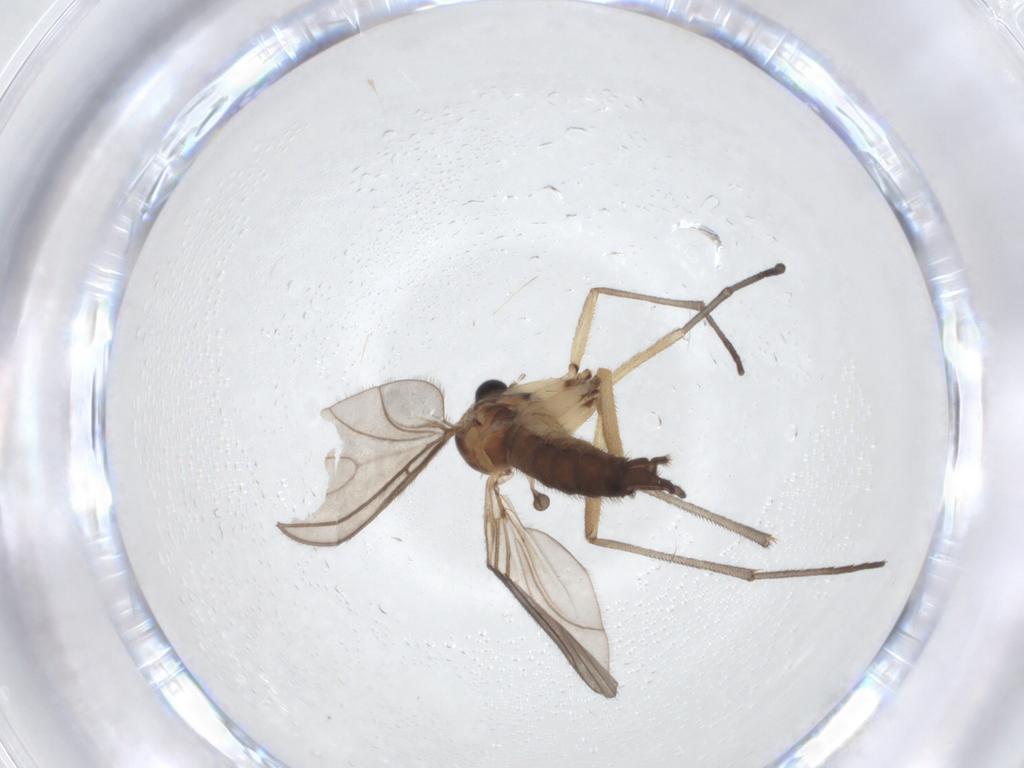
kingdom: Animalia
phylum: Arthropoda
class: Insecta
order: Diptera
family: Sciaridae
